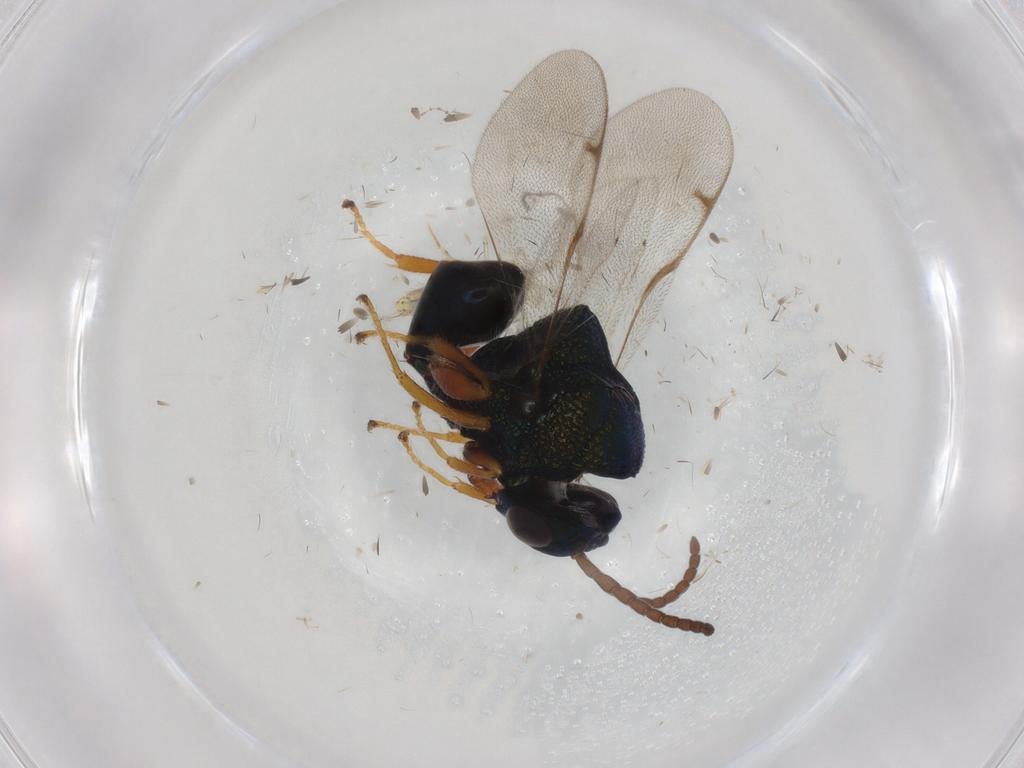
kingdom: Animalia
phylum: Arthropoda
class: Insecta
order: Hymenoptera
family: Eucharitidae
